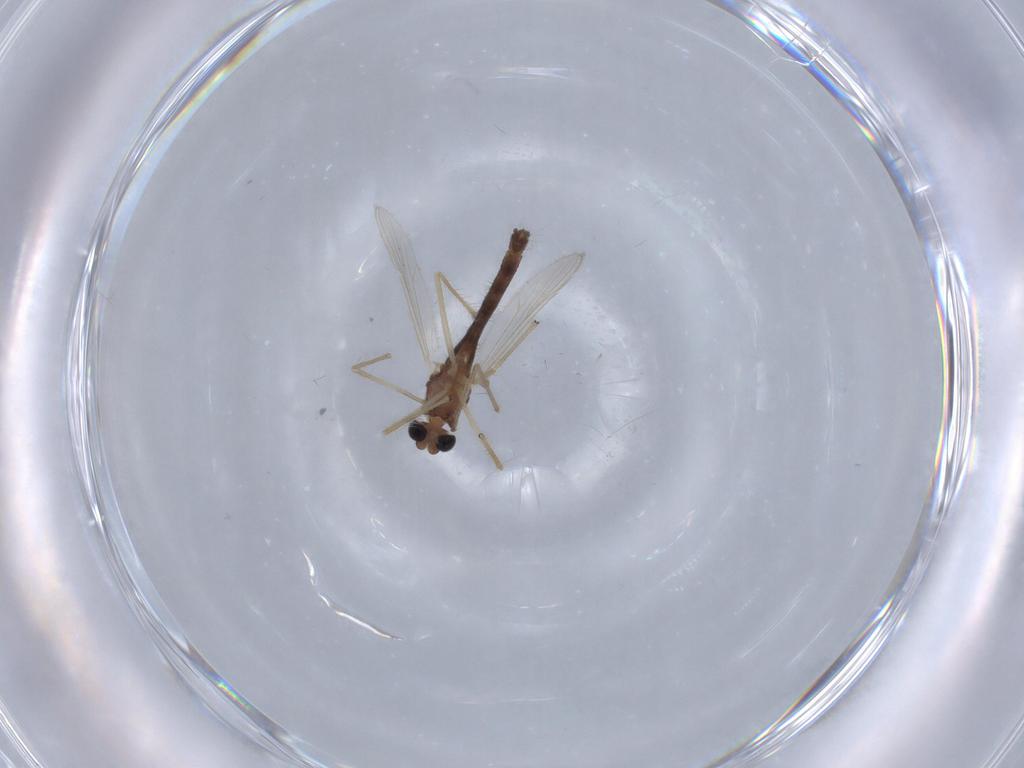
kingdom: Animalia
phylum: Arthropoda
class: Insecta
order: Diptera
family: Chironomidae
